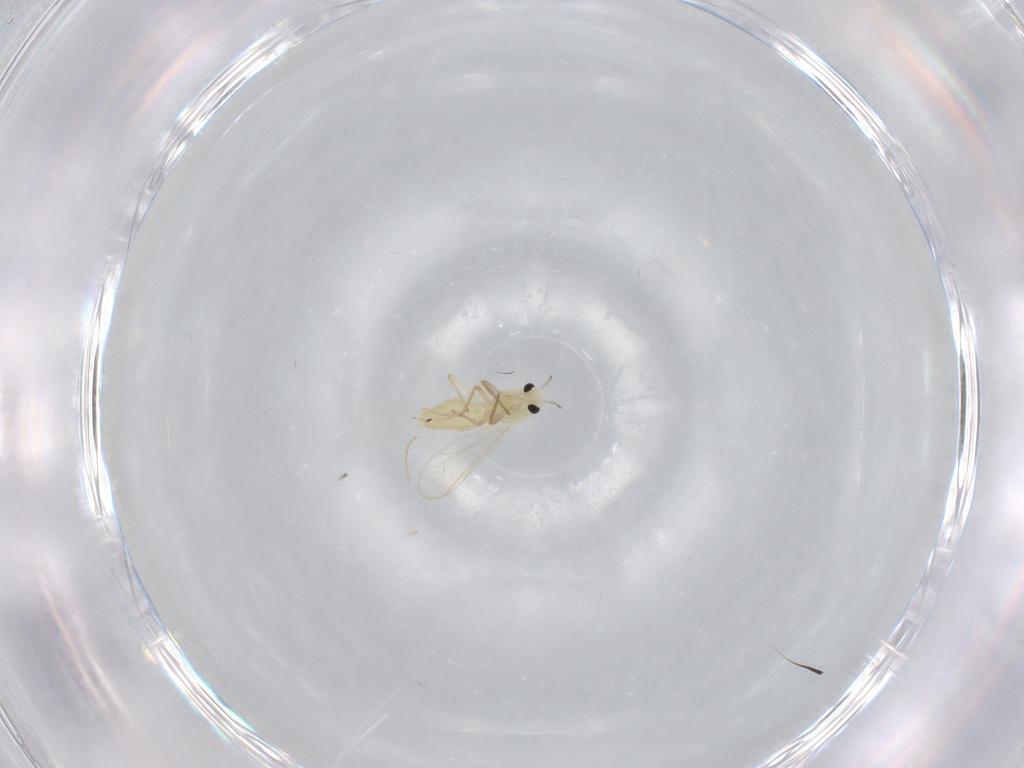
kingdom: Animalia
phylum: Arthropoda
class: Insecta
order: Diptera
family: Chironomidae
